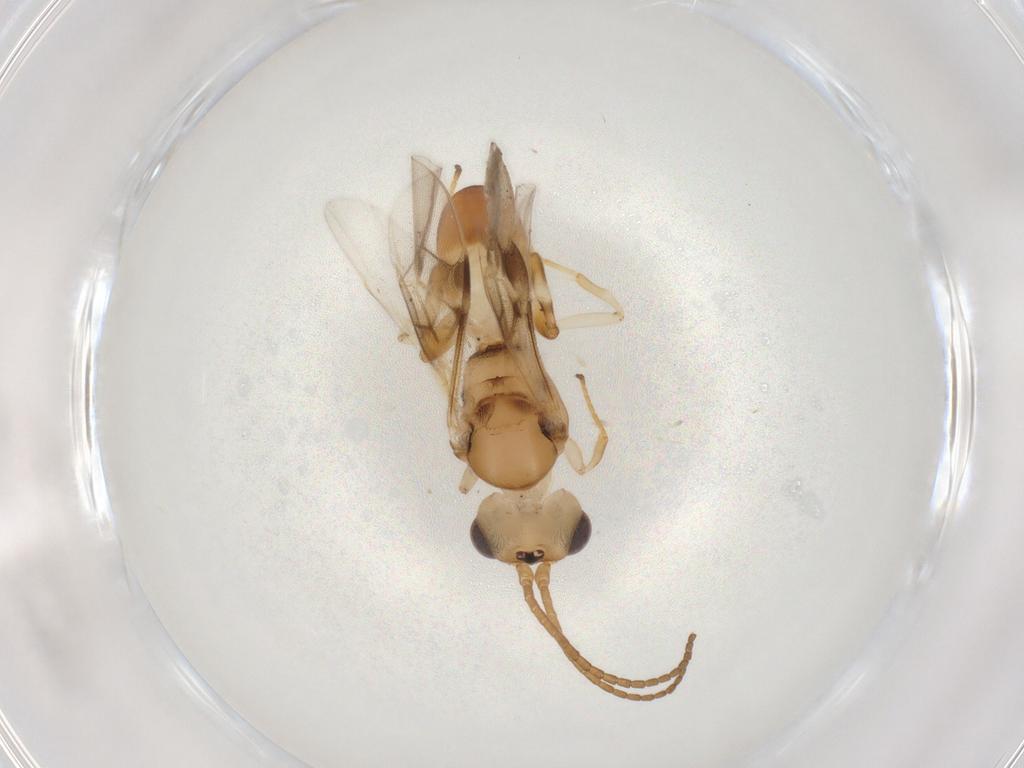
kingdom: Animalia
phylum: Arthropoda
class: Insecta
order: Hymenoptera
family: Braconidae
